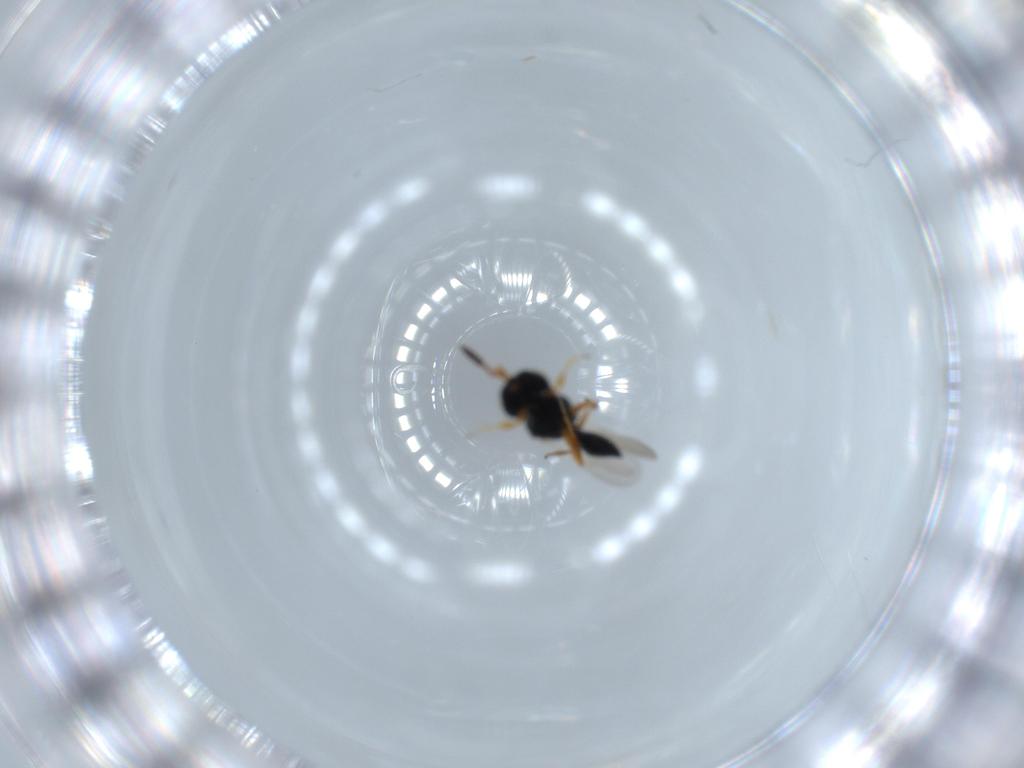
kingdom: Animalia
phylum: Arthropoda
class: Insecta
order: Hymenoptera
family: Scelionidae
